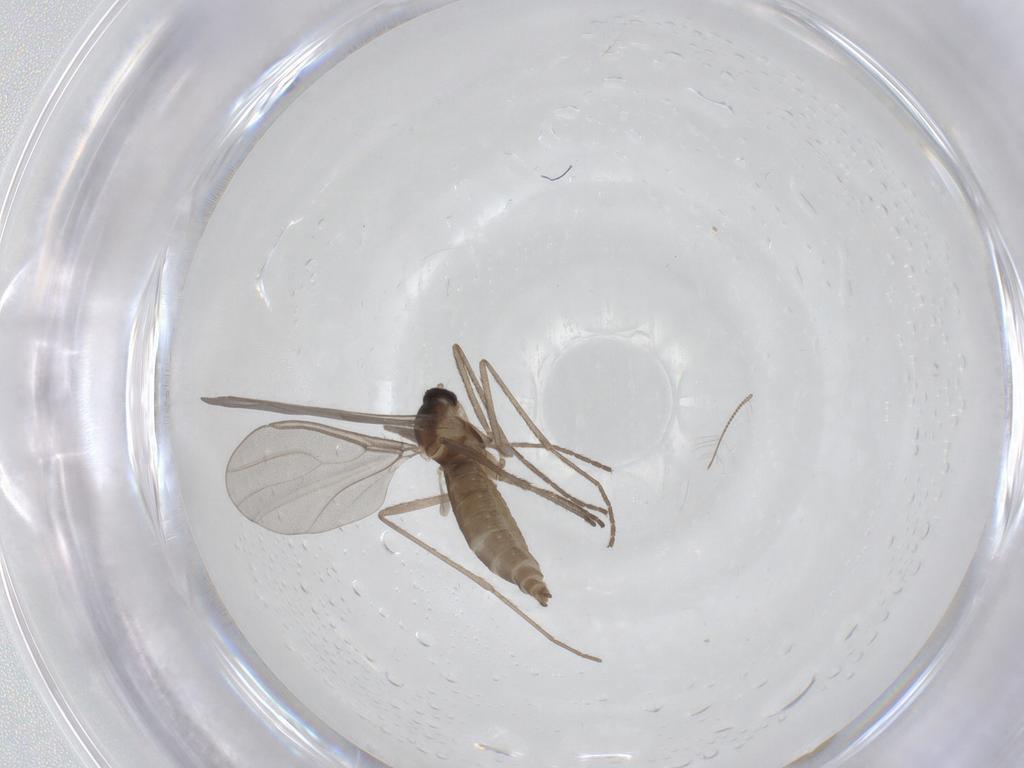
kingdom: Animalia
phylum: Arthropoda
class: Insecta
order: Diptera
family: Cecidomyiidae
